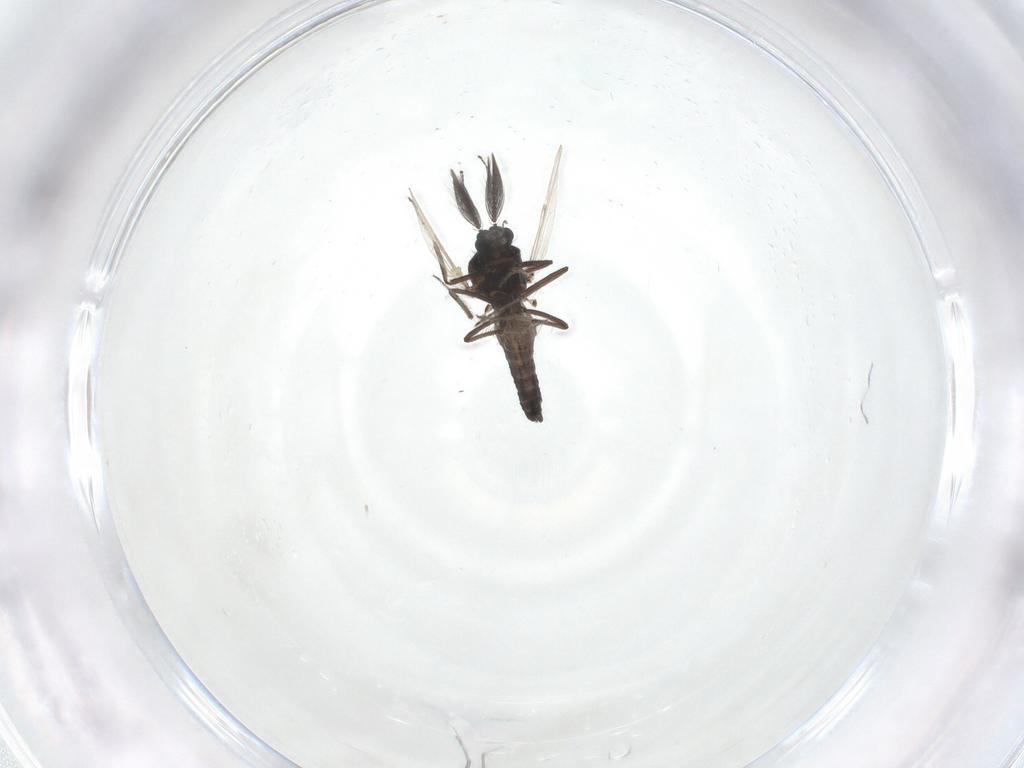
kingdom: Animalia
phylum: Arthropoda
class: Insecta
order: Diptera
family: Ceratopogonidae
